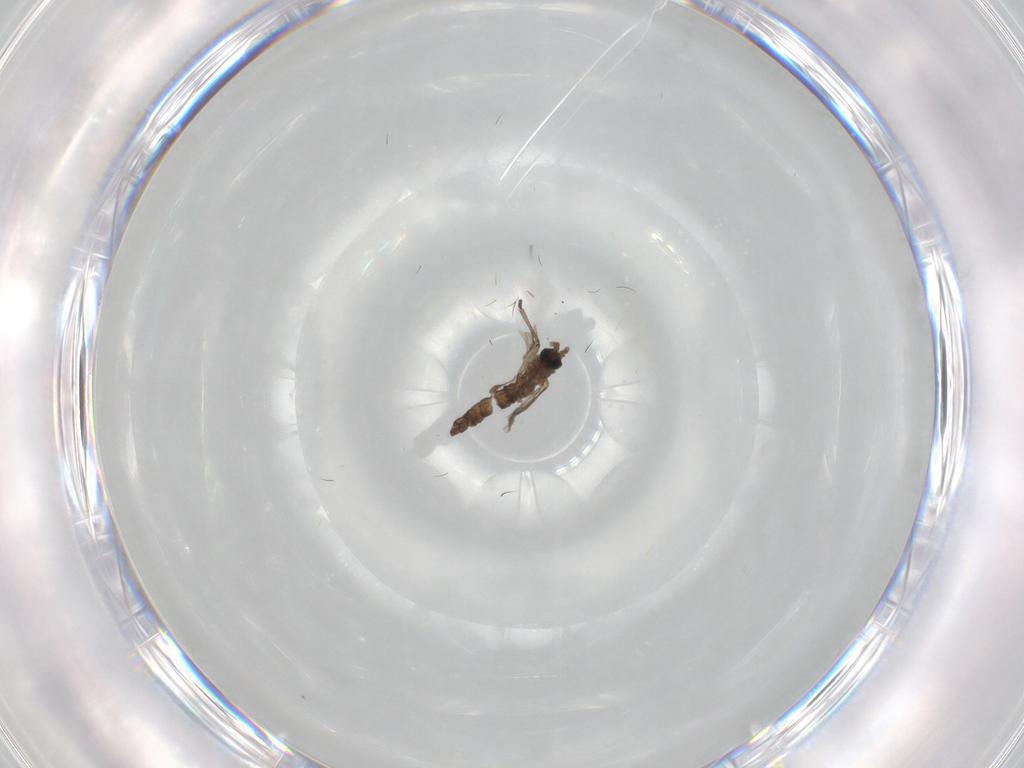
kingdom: Animalia
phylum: Arthropoda
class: Insecta
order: Diptera
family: Sciaridae
